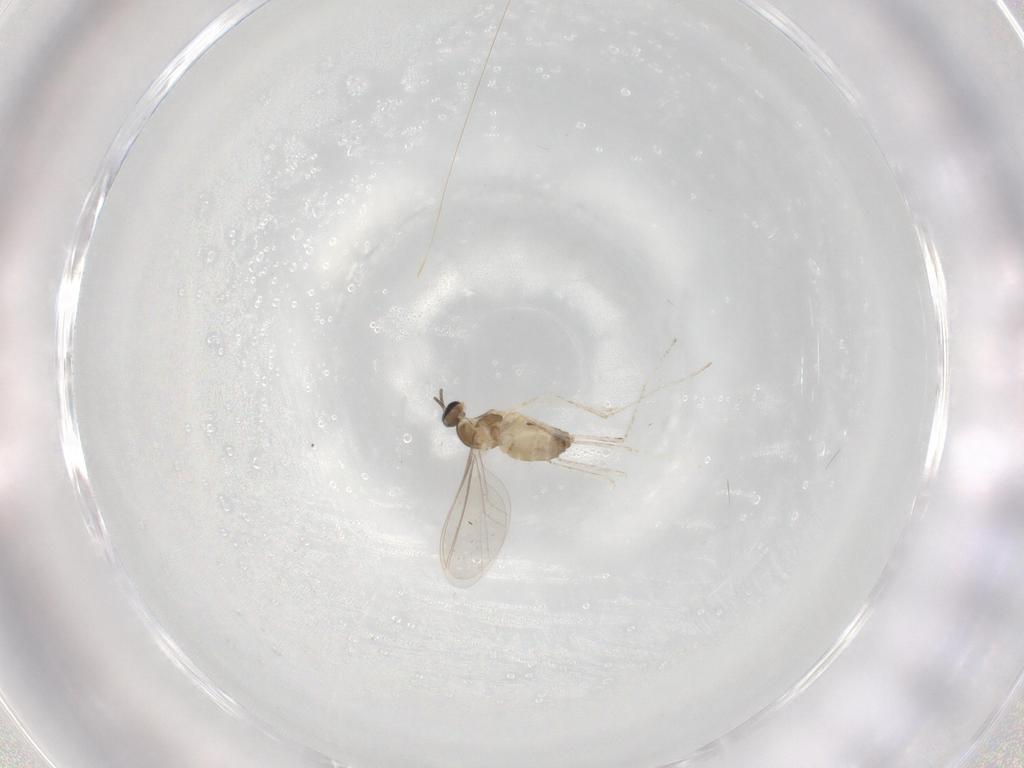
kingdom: Animalia
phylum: Arthropoda
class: Insecta
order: Diptera
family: Cecidomyiidae
